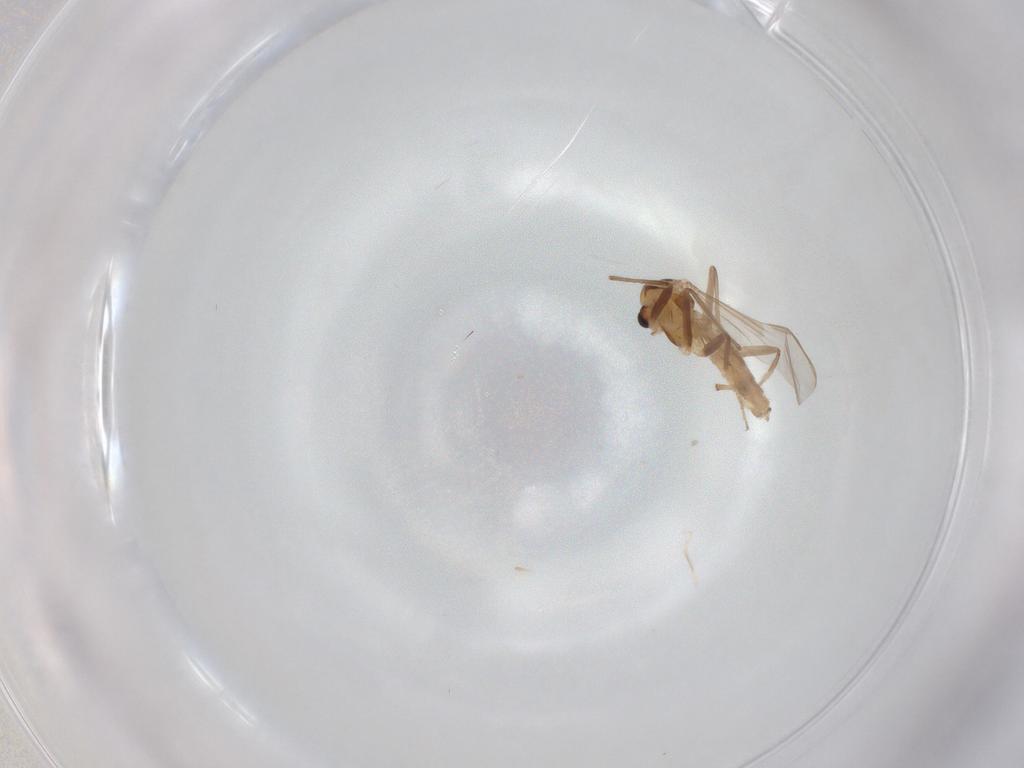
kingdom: Animalia
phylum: Arthropoda
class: Insecta
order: Diptera
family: Chironomidae
